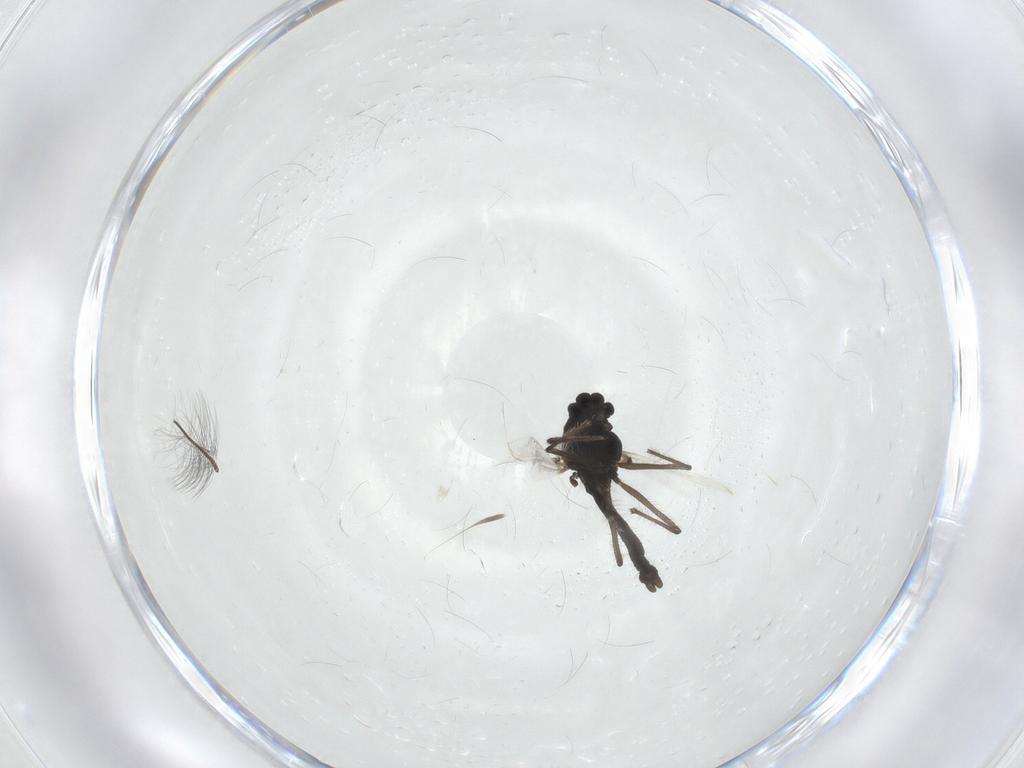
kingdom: Animalia
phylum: Arthropoda
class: Insecta
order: Diptera
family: Chironomidae
